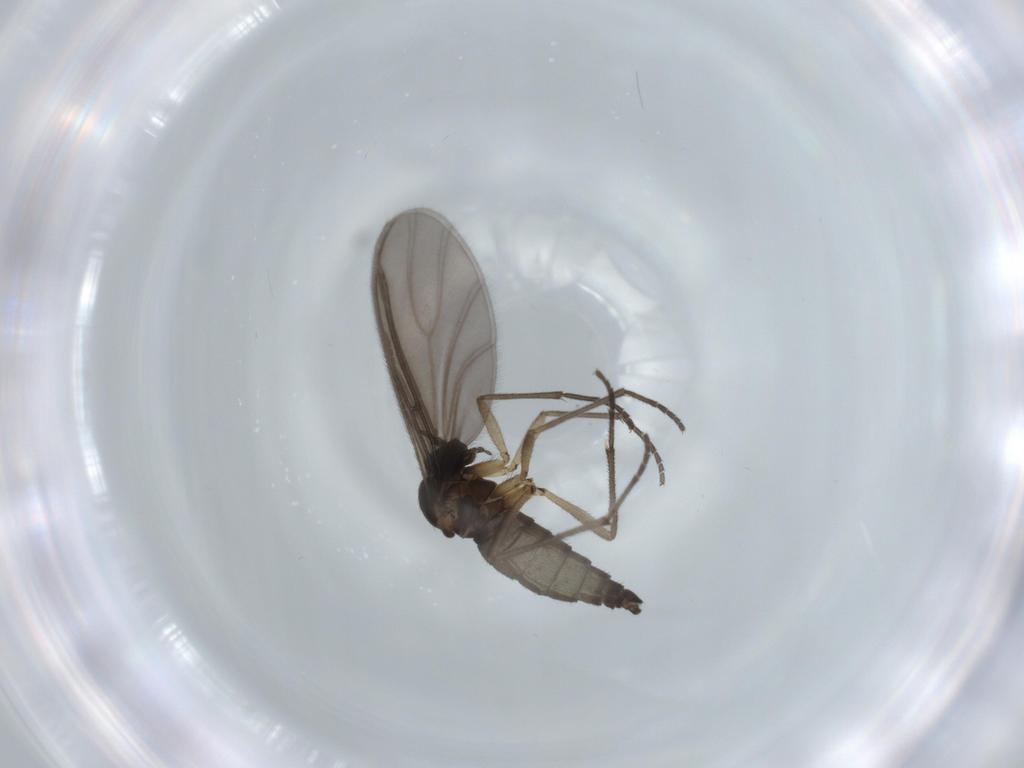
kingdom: Animalia
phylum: Arthropoda
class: Insecta
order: Diptera
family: Sciaridae
